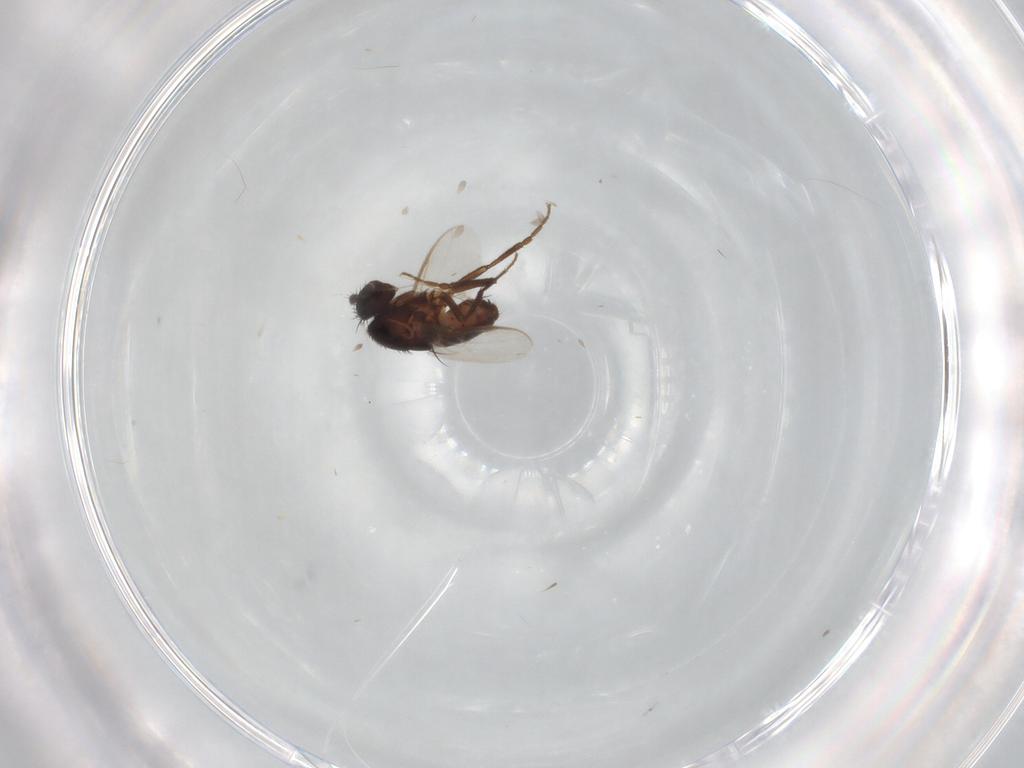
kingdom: Animalia
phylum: Arthropoda
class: Insecta
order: Diptera
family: Sphaeroceridae
